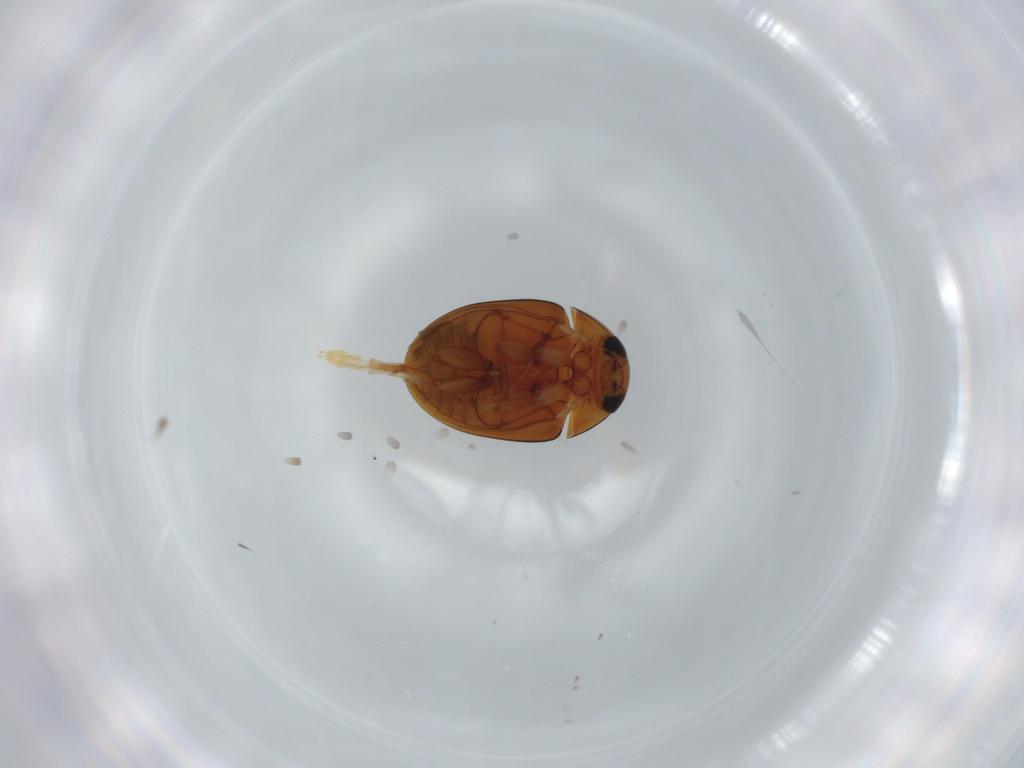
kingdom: Animalia
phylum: Arthropoda
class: Insecta
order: Coleoptera
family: Phalacridae
